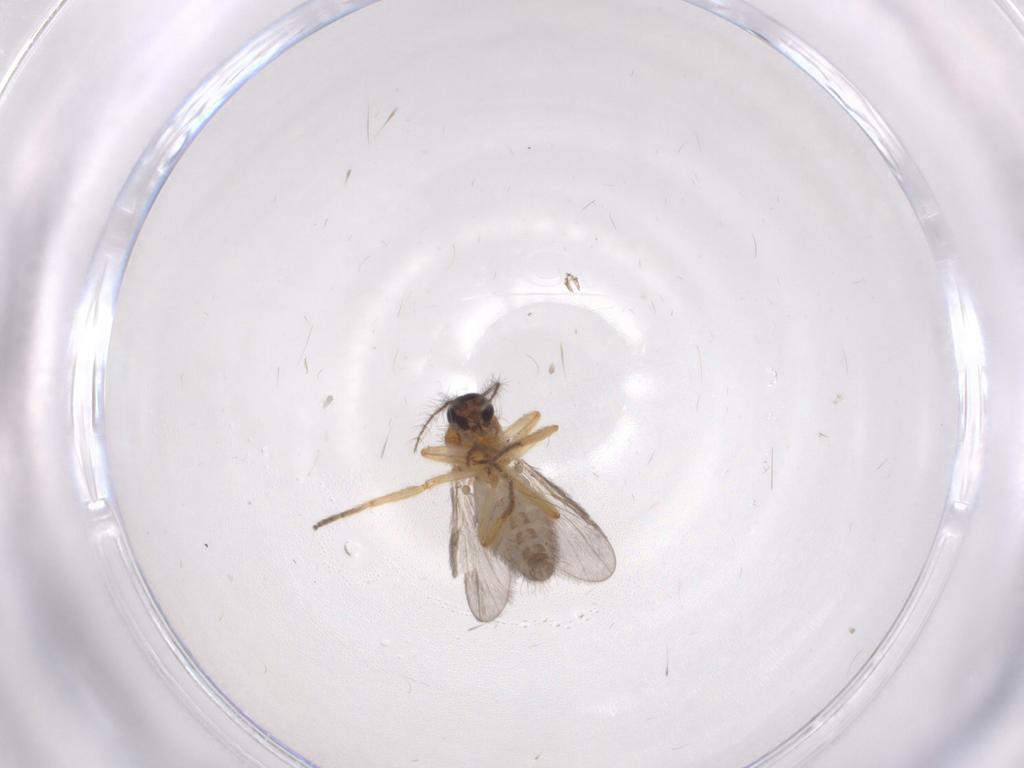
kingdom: Animalia
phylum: Arthropoda
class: Insecta
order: Diptera
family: Ceratopogonidae
